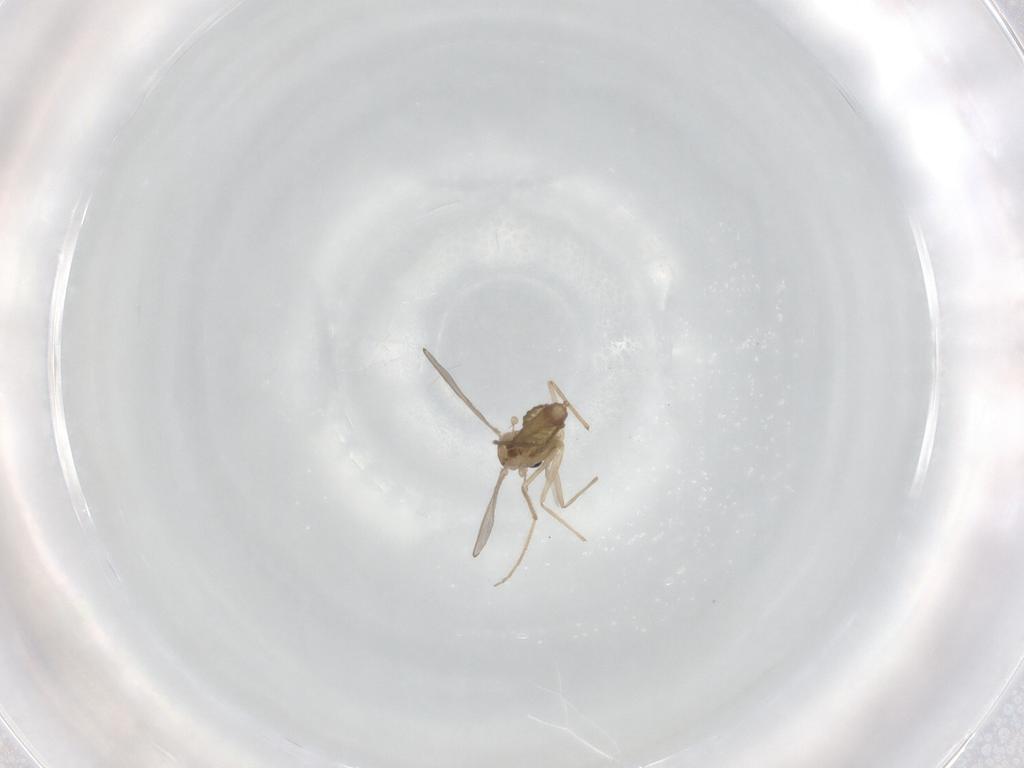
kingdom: Animalia
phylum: Arthropoda
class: Insecta
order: Diptera
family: Chironomidae
